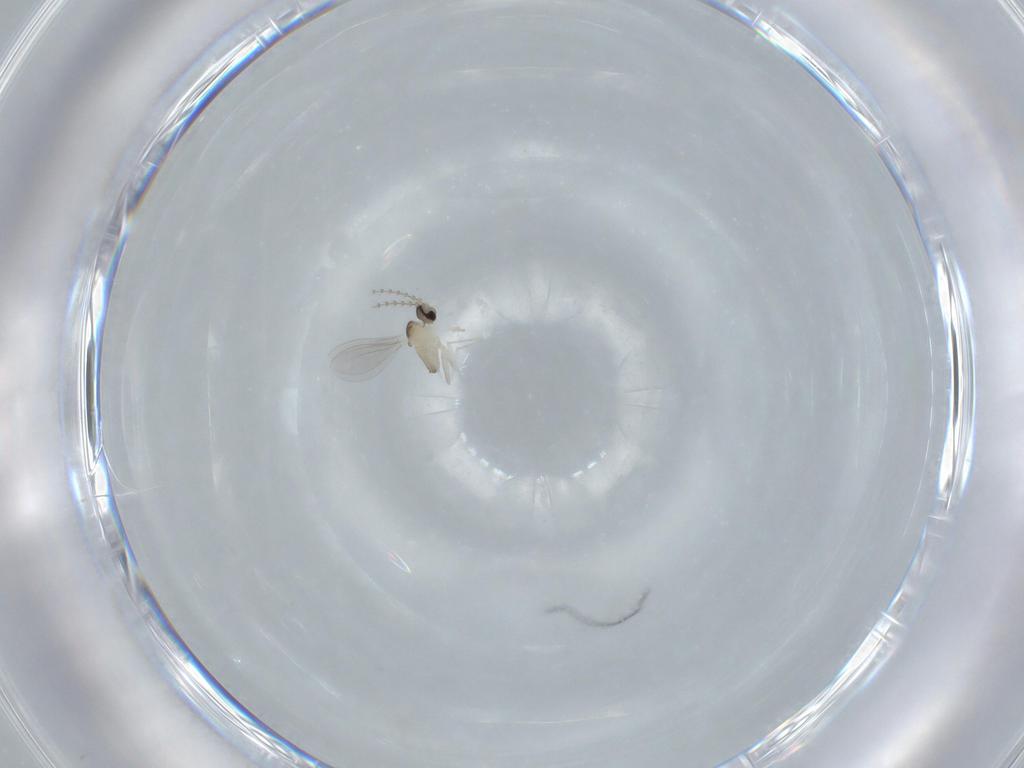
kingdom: Animalia
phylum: Arthropoda
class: Insecta
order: Diptera
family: Cecidomyiidae
